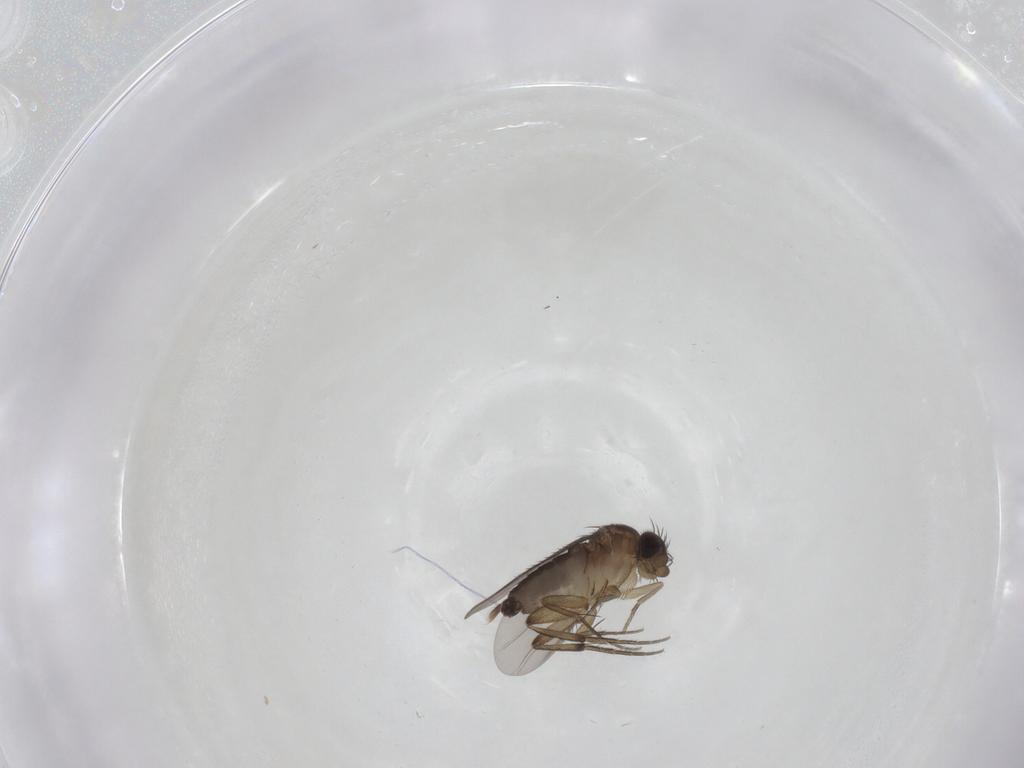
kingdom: Animalia
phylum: Arthropoda
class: Insecta
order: Diptera
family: Phoridae
